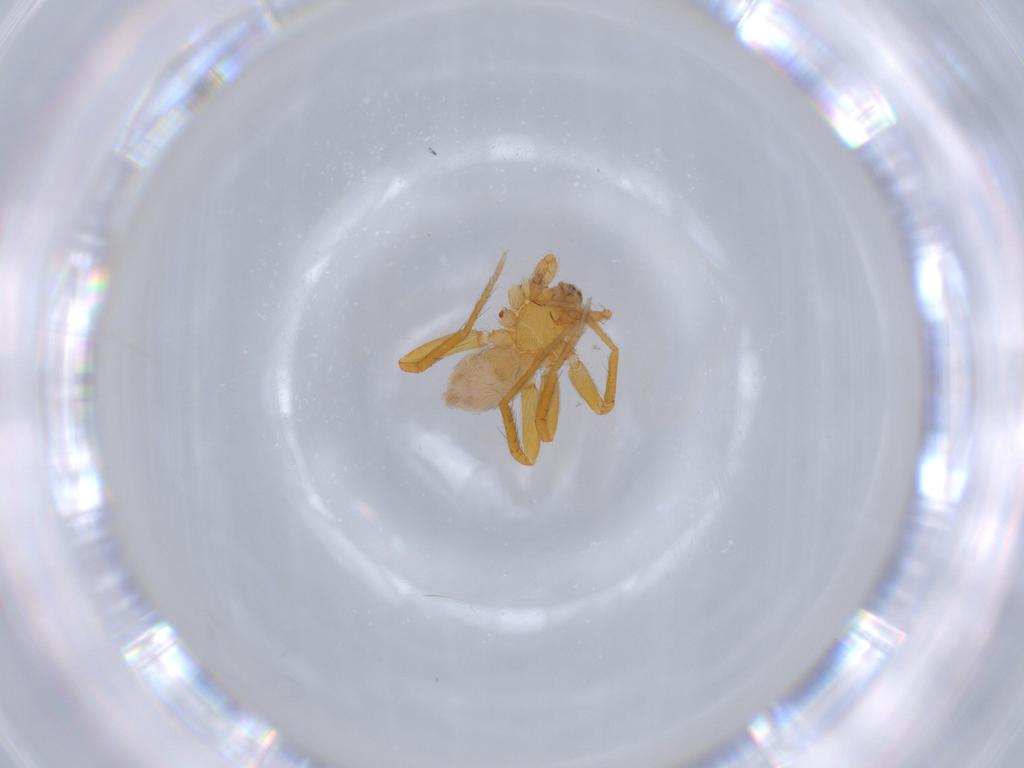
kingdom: Animalia
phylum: Arthropoda
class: Arachnida
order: Araneae
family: Oonopidae
